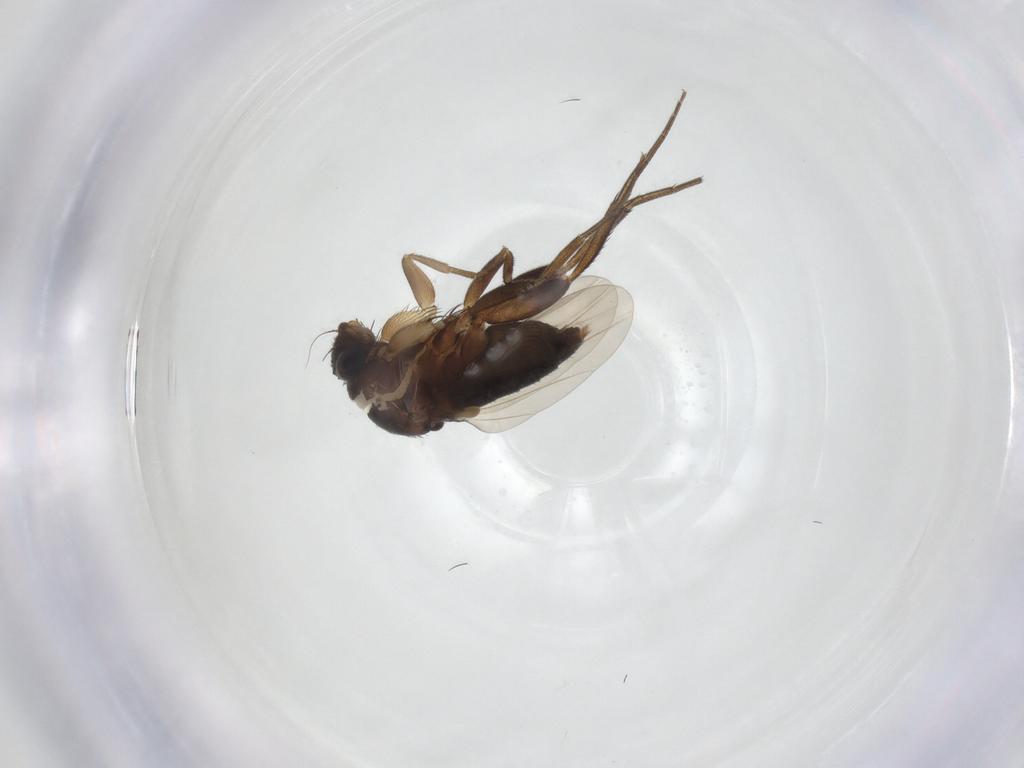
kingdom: Animalia
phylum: Arthropoda
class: Insecta
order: Diptera
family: Phoridae
